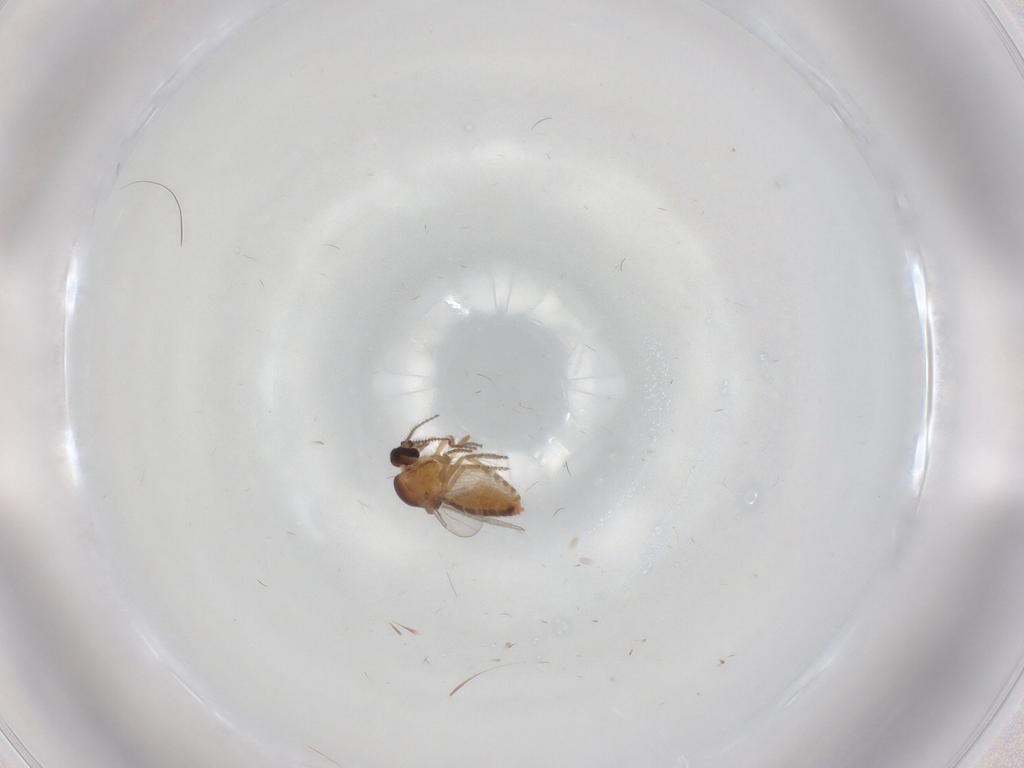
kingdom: Animalia
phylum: Arthropoda
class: Insecta
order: Diptera
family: Ceratopogonidae
